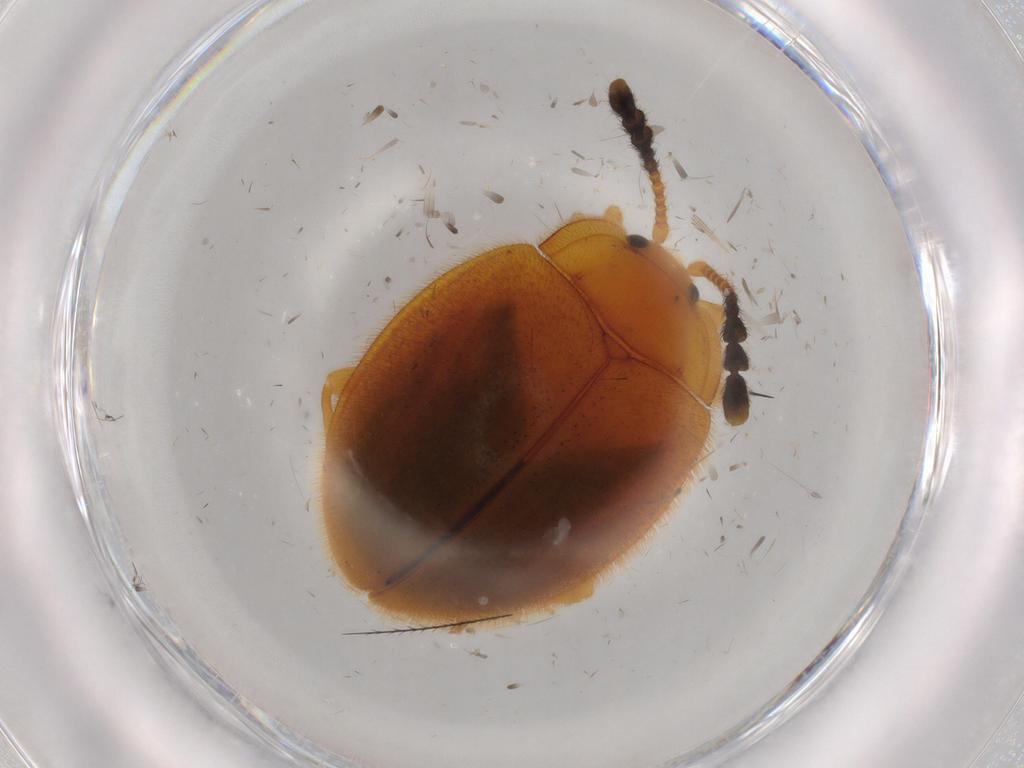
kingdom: Animalia
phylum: Arthropoda
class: Insecta
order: Coleoptera
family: Endomychidae
